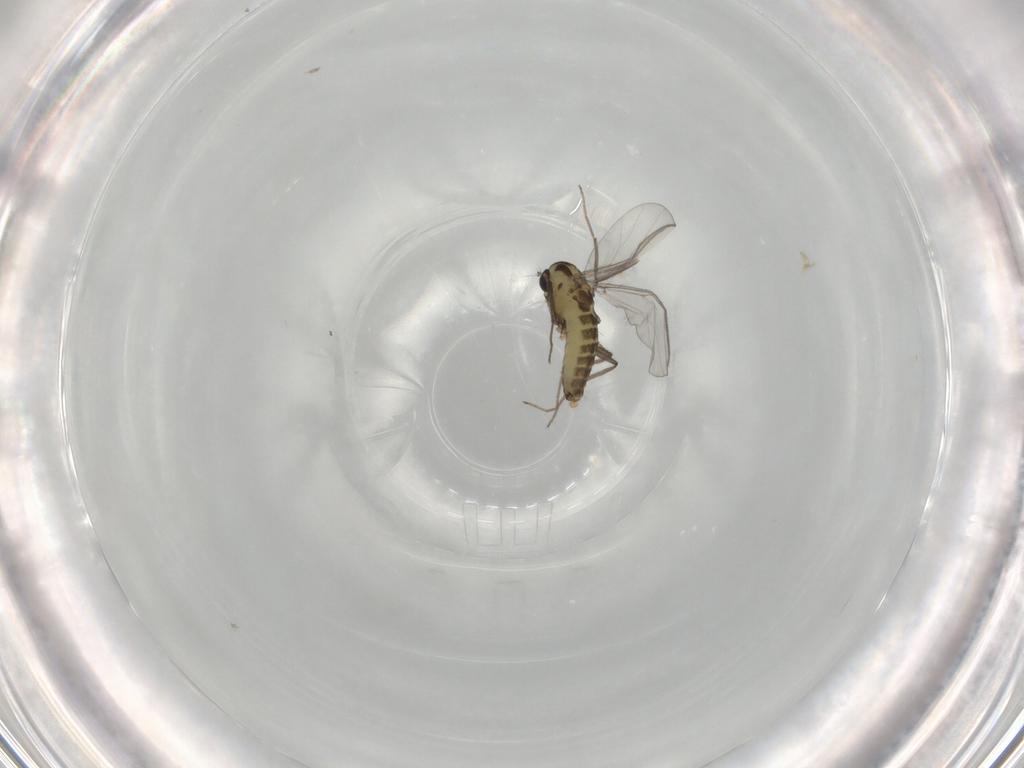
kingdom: Animalia
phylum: Arthropoda
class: Insecta
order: Diptera
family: Chironomidae
